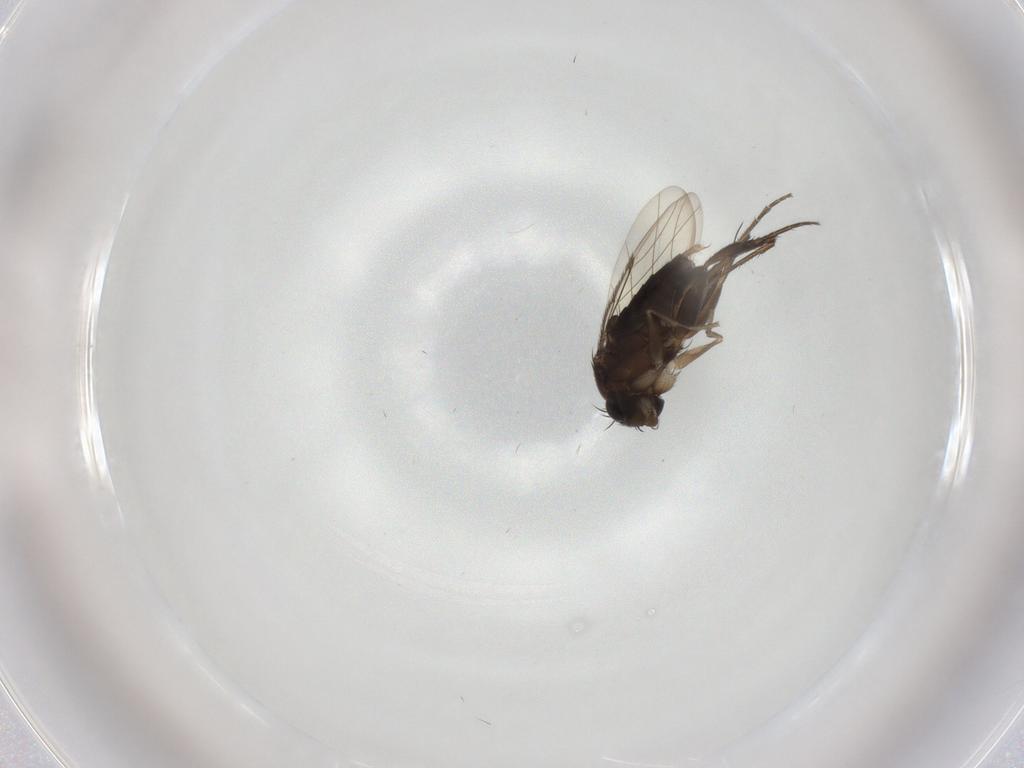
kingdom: Animalia
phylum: Arthropoda
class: Insecta
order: Diptera
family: Cecidomyiidae
